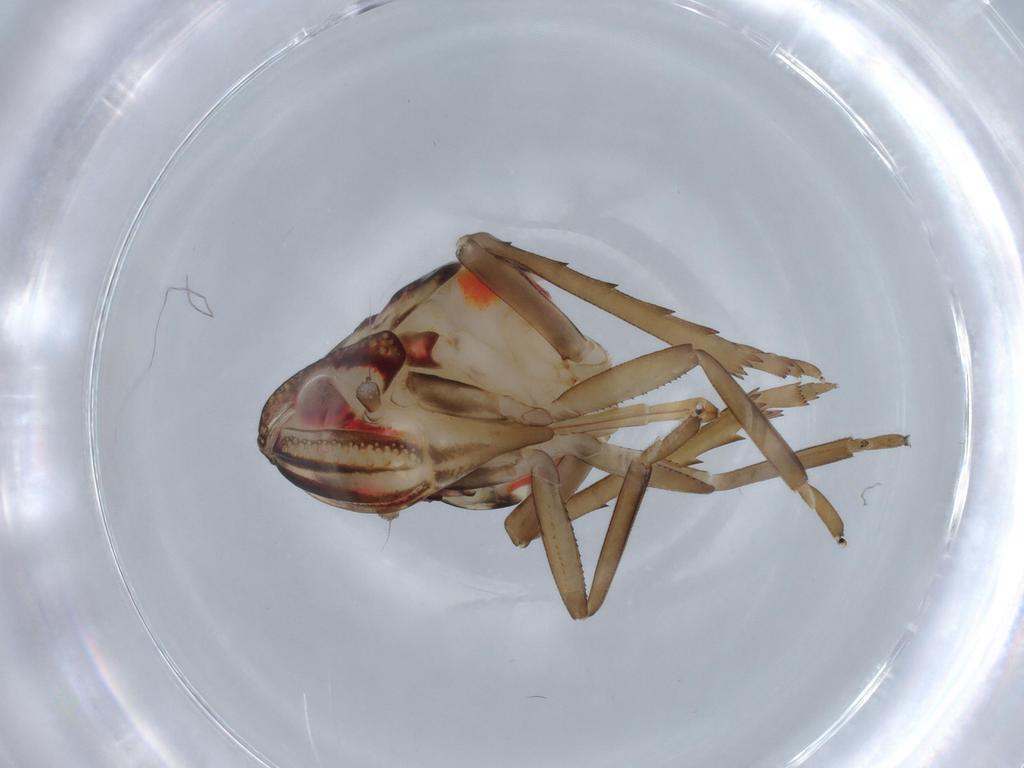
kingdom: Animalia
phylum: Arthropoda
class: Insecta
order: Hemiptera
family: Nogodinidae
